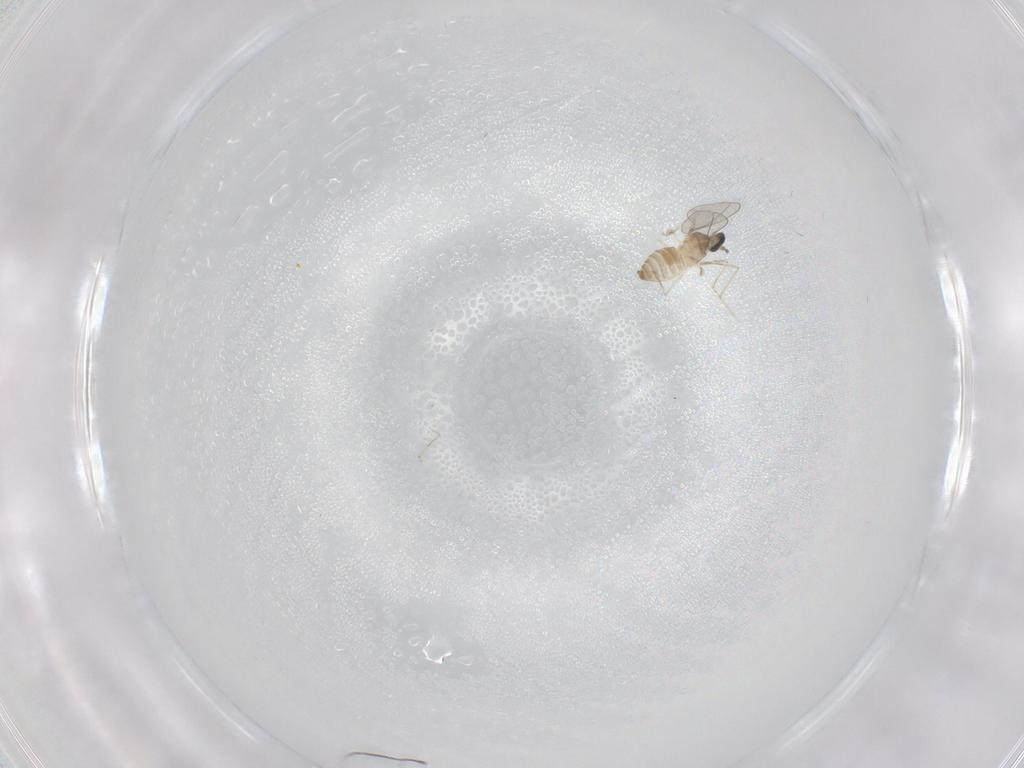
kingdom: Animalia
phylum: Arthropoda
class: Insecta
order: Diptera
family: Cecidomyiidae
